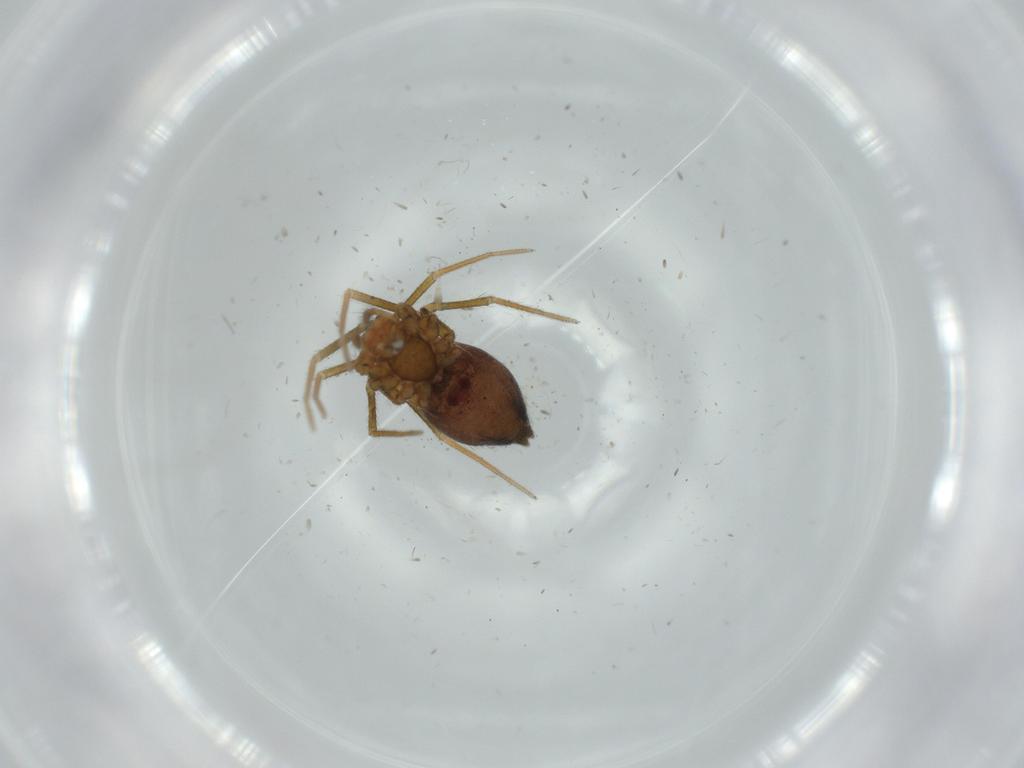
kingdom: Animalia
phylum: Arthropoda
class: Arachnida
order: Araneae
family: Linyphiidae
